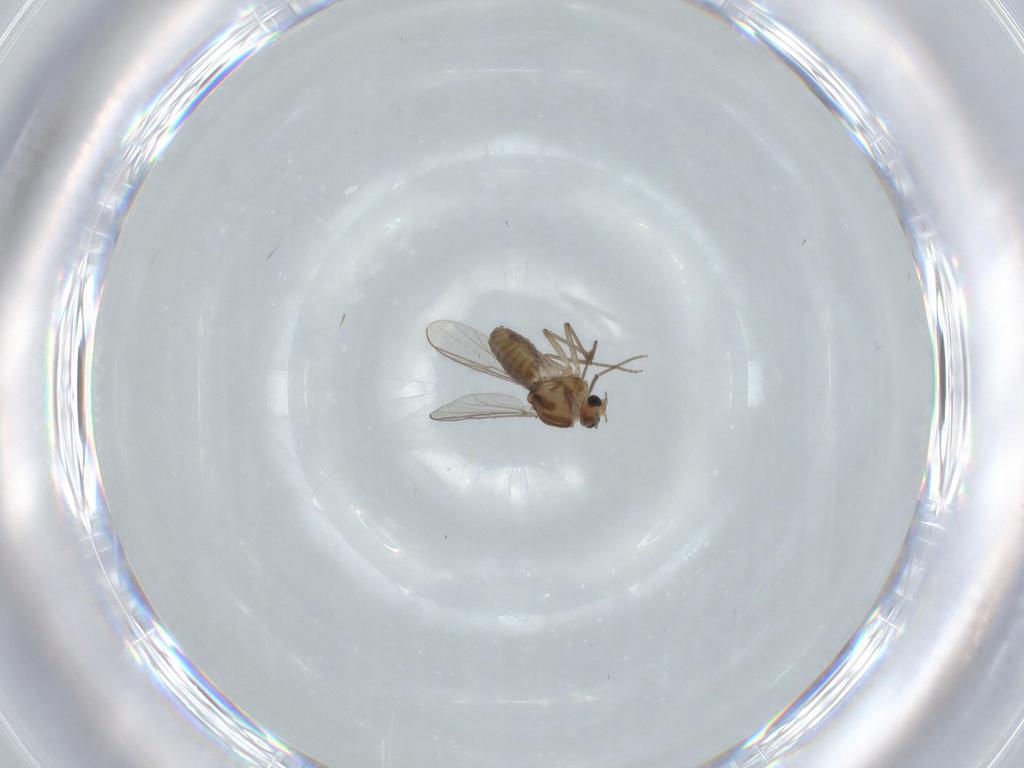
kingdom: Animalia
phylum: Arthropoda
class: Insecta
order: Diptera
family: Chironomidae
